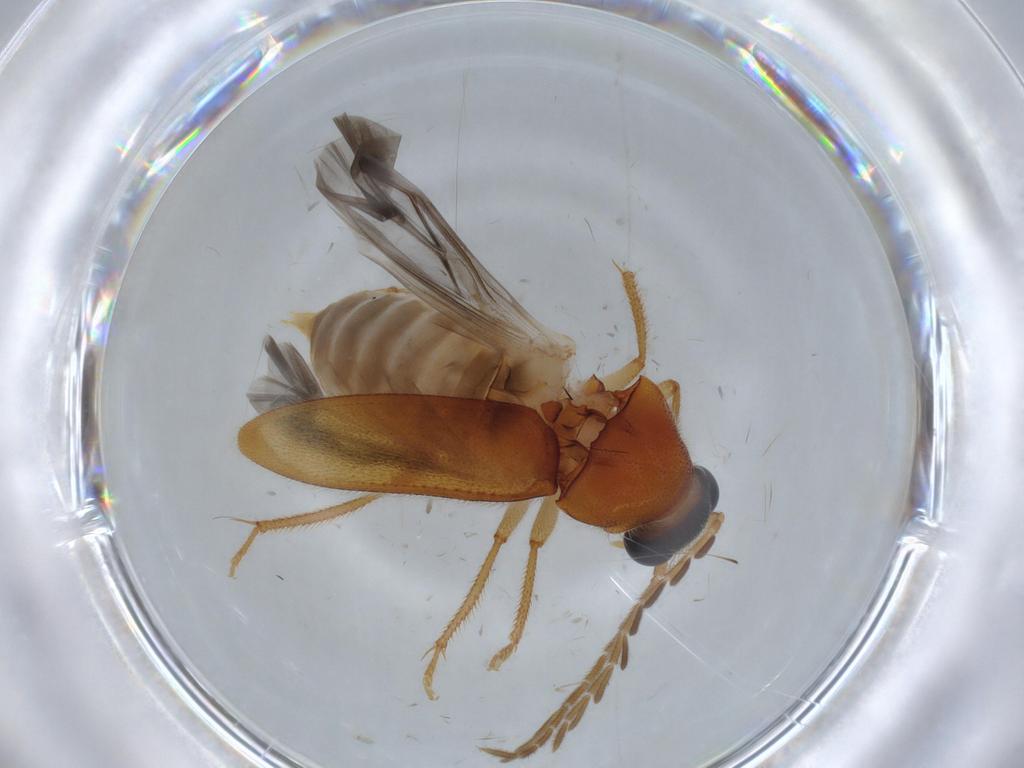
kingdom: Animalia
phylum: Arthropoda
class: Insecta
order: Coleoptera
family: Ptilodactylidae
